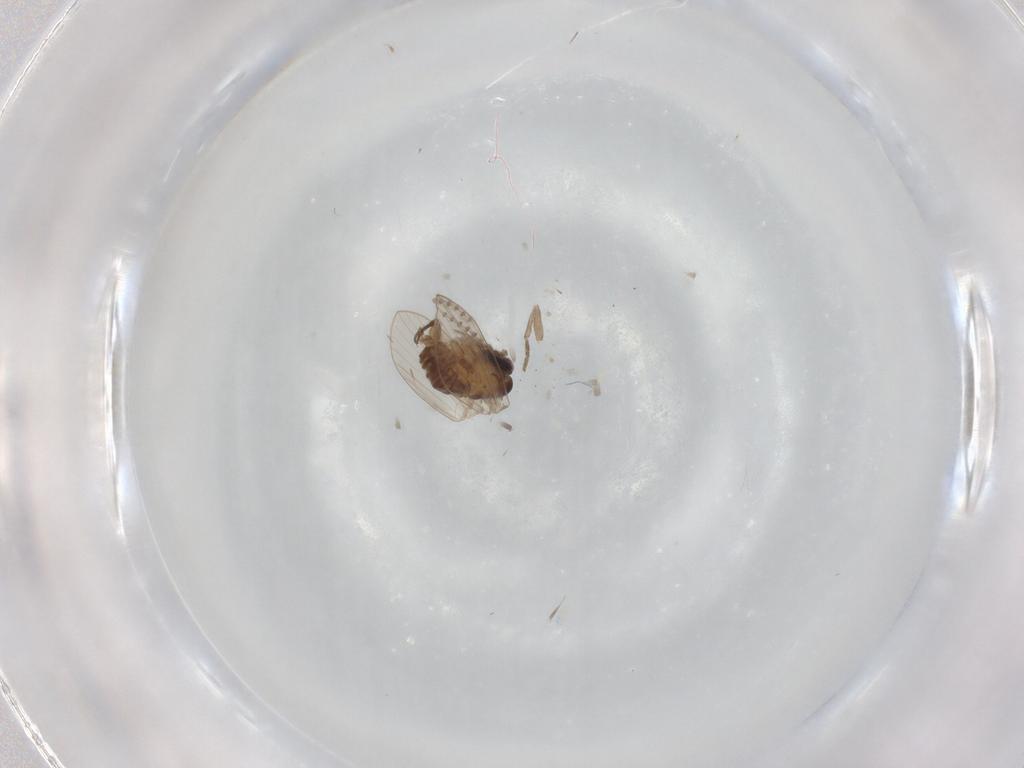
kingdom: Animalia
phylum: Arthropoda
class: Insecta
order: Diptera
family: Psychodidae
